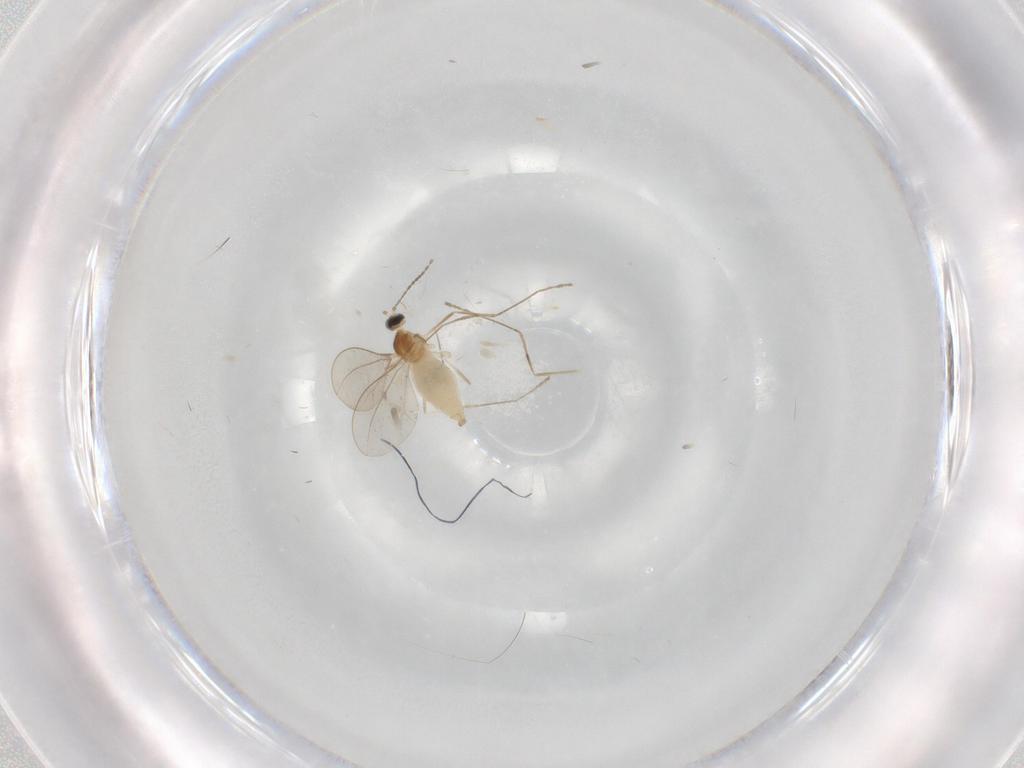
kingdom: Animalia
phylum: Arthropoda
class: Insecta
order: Diptera
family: Cecidomyiidae
